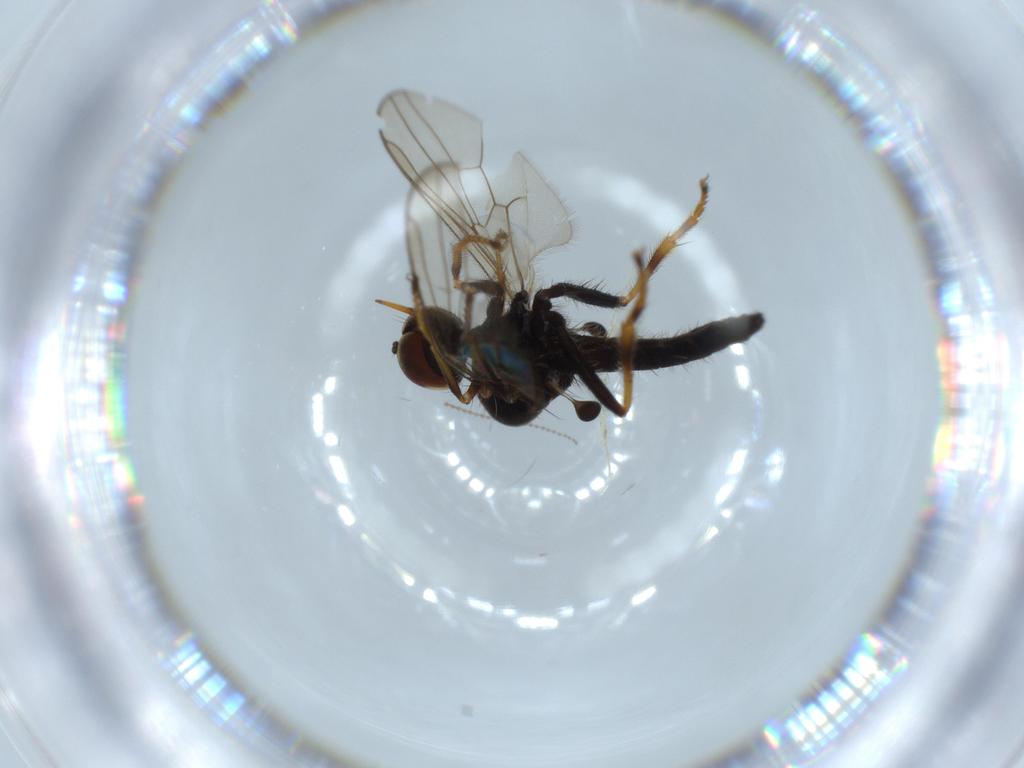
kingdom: Animalia
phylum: Arthropoda
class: Insecta
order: Diptera
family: Hybotidae
